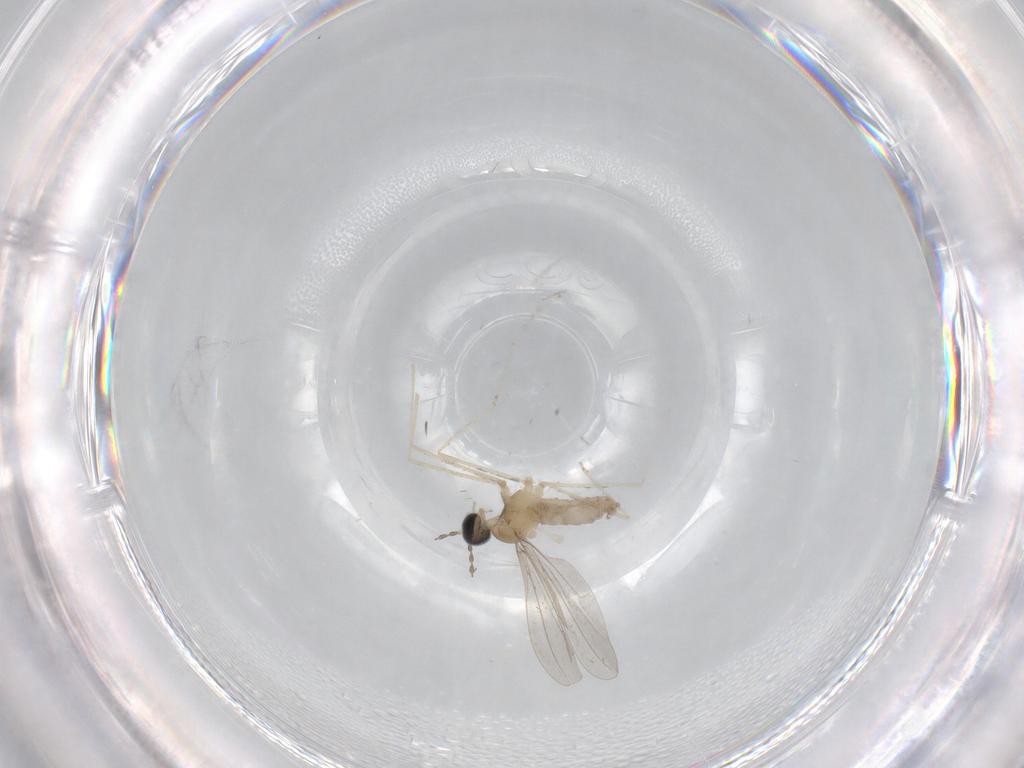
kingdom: Animalia
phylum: Arthropoda
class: Insecta
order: Diptera
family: Cecidomyiidae
